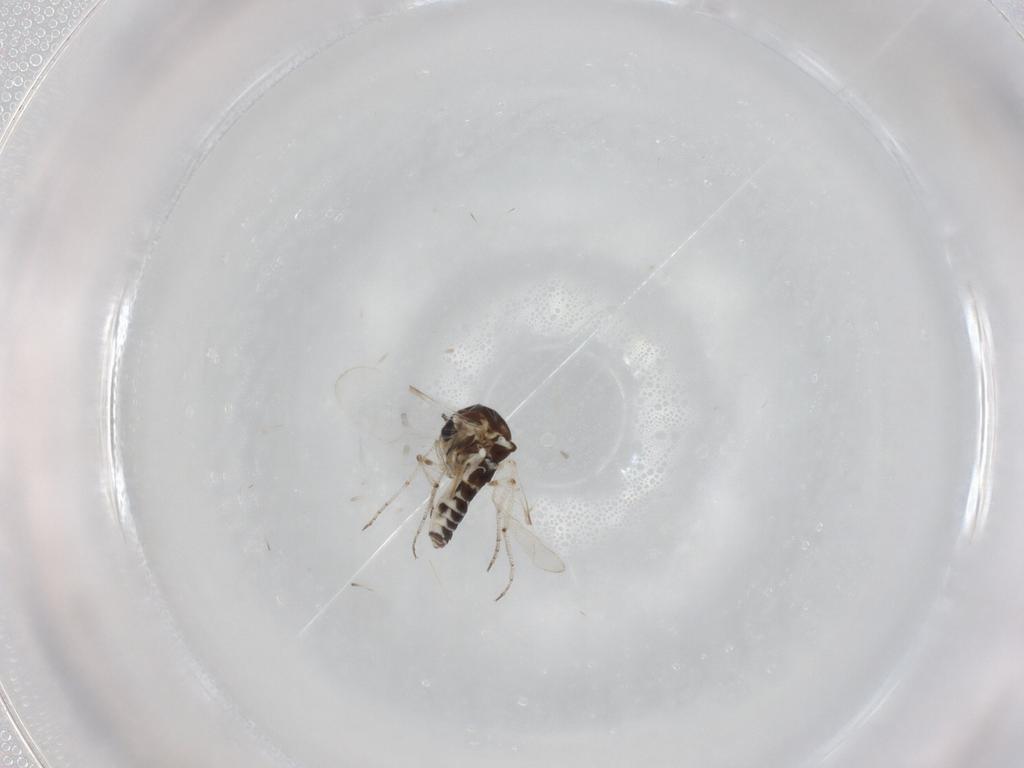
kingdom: Animalia
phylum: Arthropoda
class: Insecta
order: Diptera
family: Ceratopogonidae
